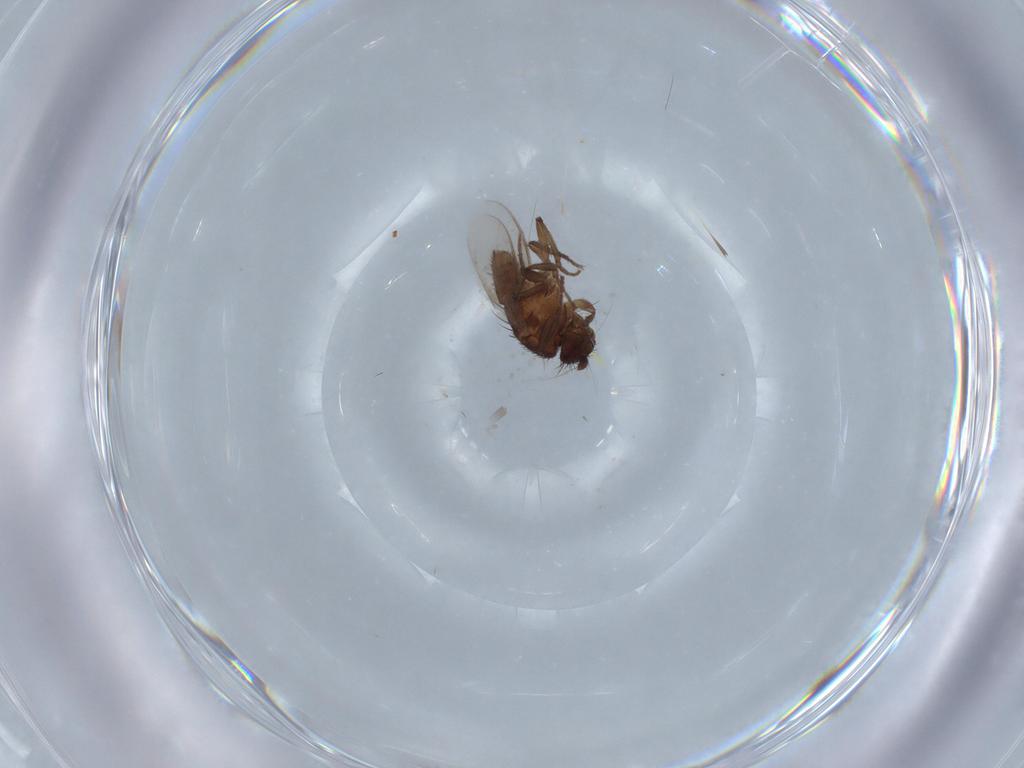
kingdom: Animalia
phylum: Arthropoda
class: Insecta
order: Diptera
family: Sphaeroceridae
